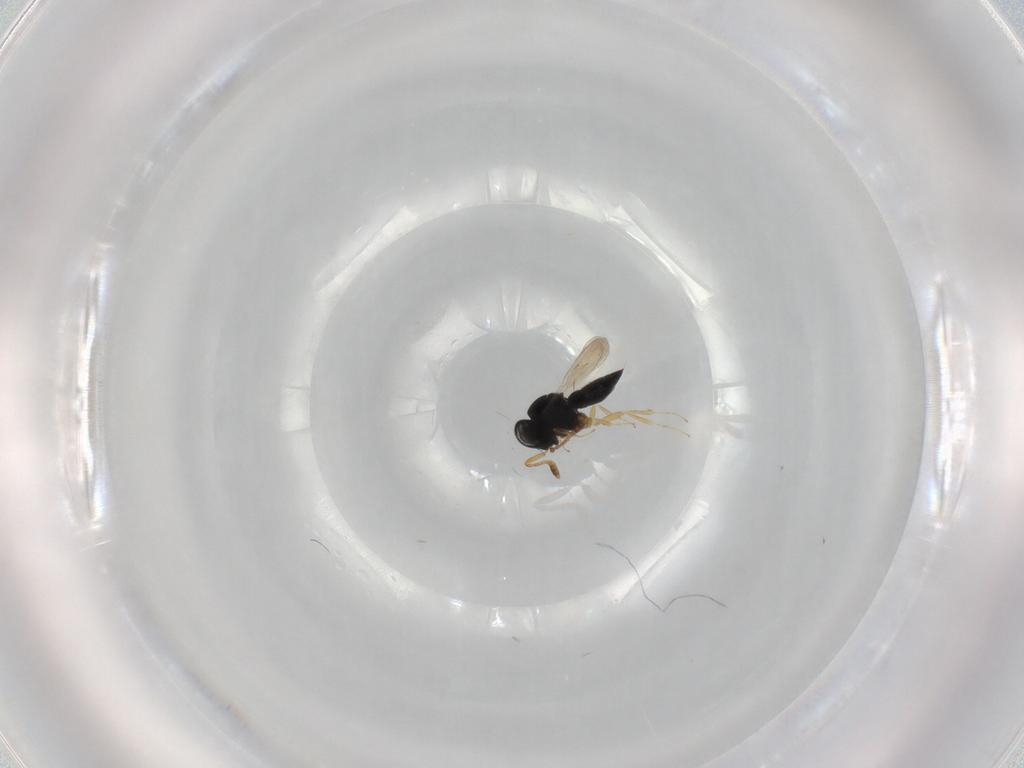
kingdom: Animalia
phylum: Arthropoda
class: Insecta
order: Hymenoptera
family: Scelionidae
